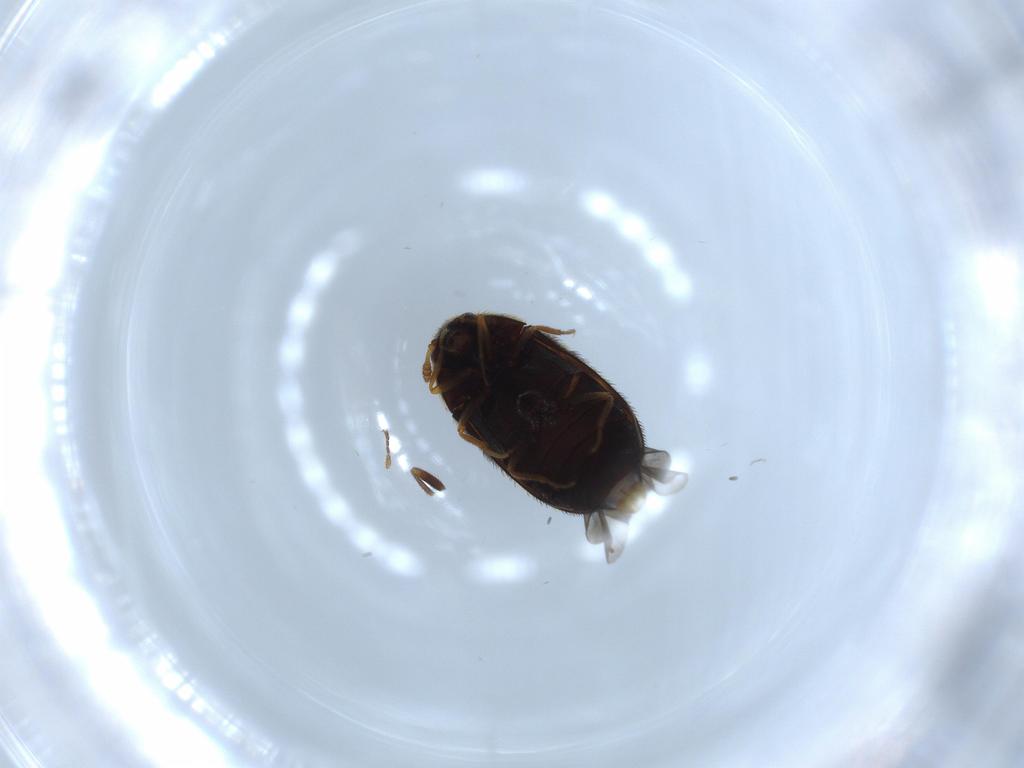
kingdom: Animalia
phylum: Arthropoda
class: Insecta
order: Coleoptera
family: Dermestidae
